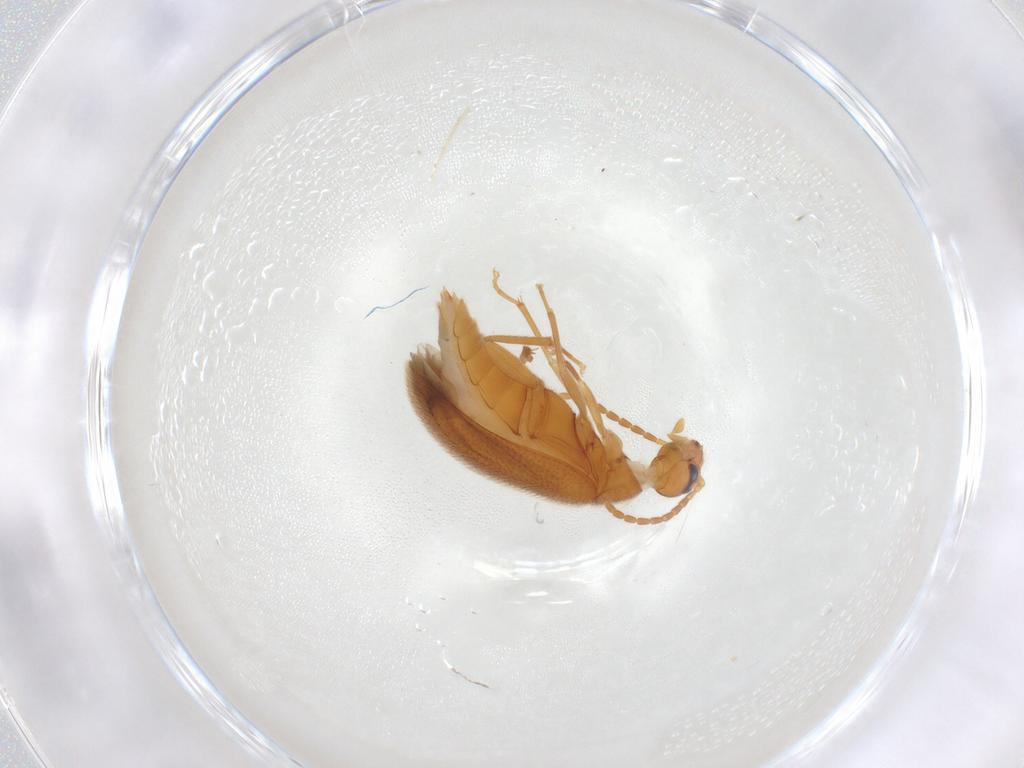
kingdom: Animalia
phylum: Arthropoda
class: Insecta
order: Coleoptera
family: Scraptiidae
